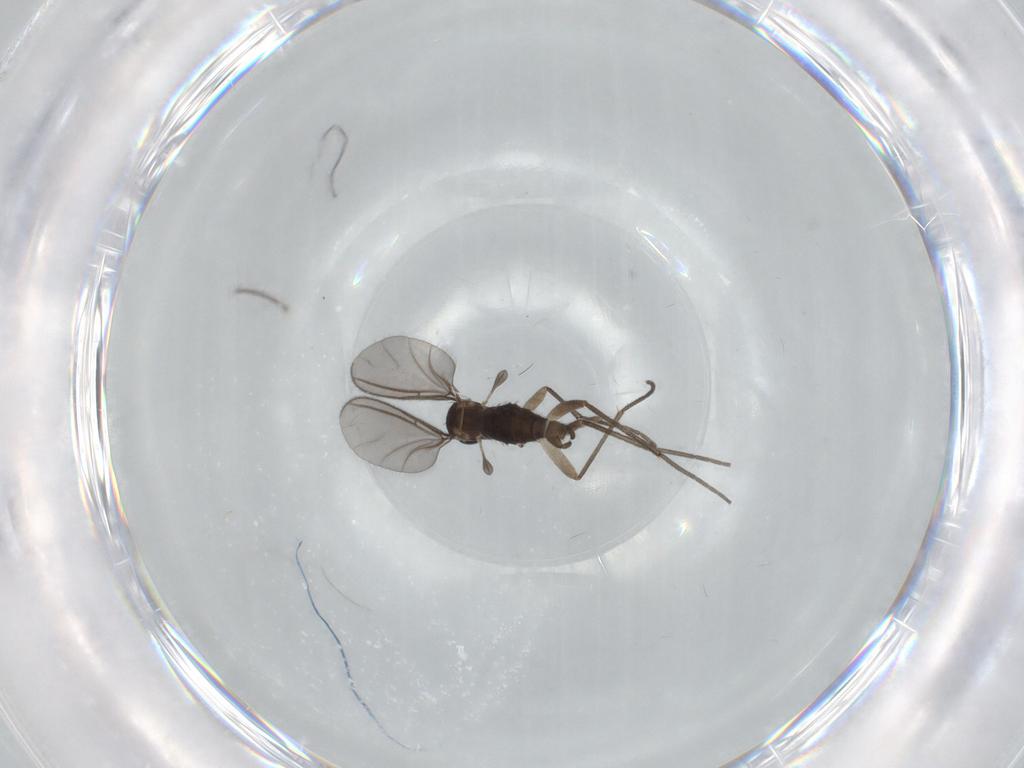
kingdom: Animalia
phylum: Arthropoda
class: Insecta
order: Diptera
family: Sciaridae
